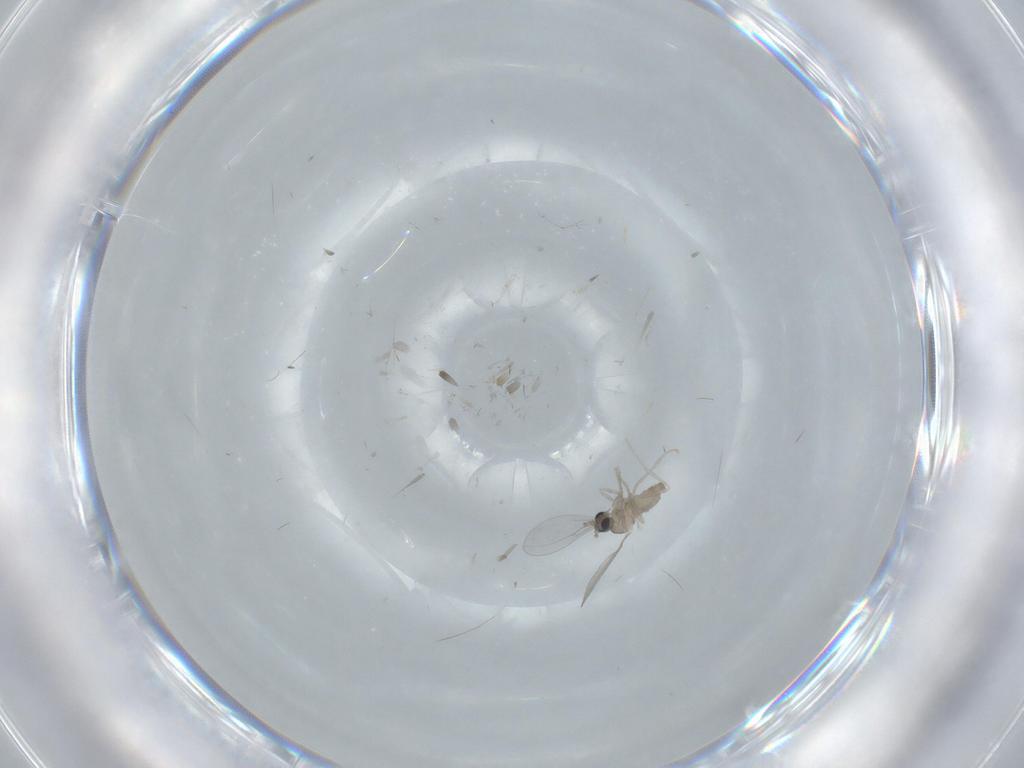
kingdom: Animalia
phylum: Arthropoda
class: Insecta
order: Diptera
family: Cecidomyiidae
